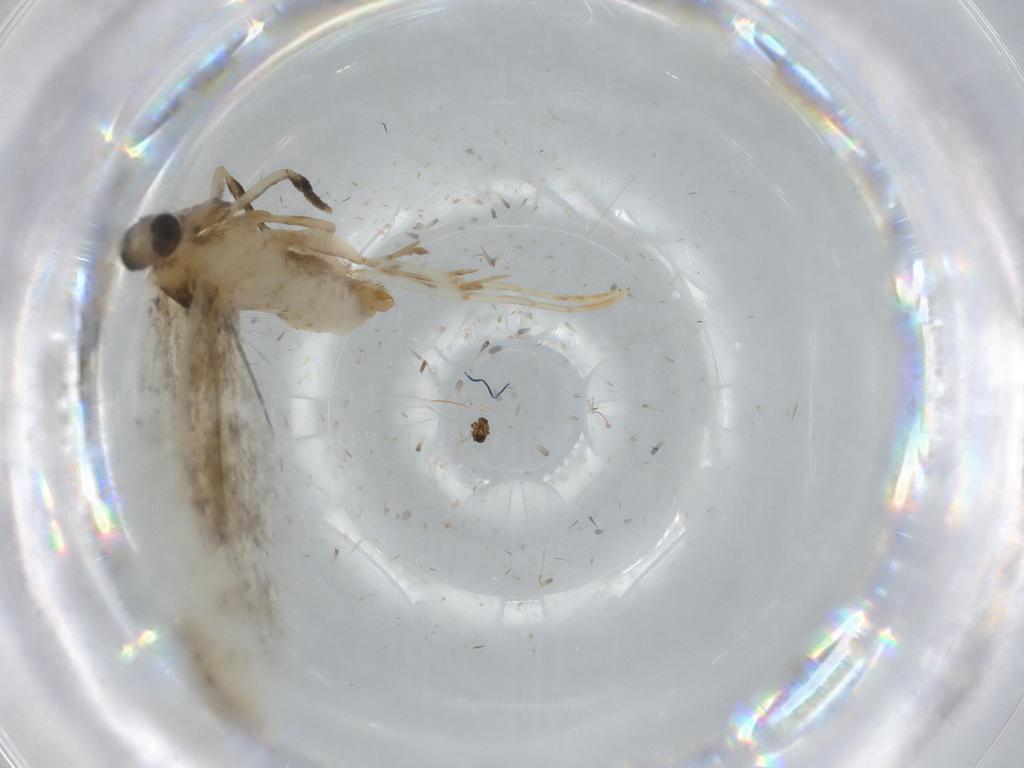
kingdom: Animalia
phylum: Arthropoda
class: Insecta
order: Lepidoptera
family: Tineidae
